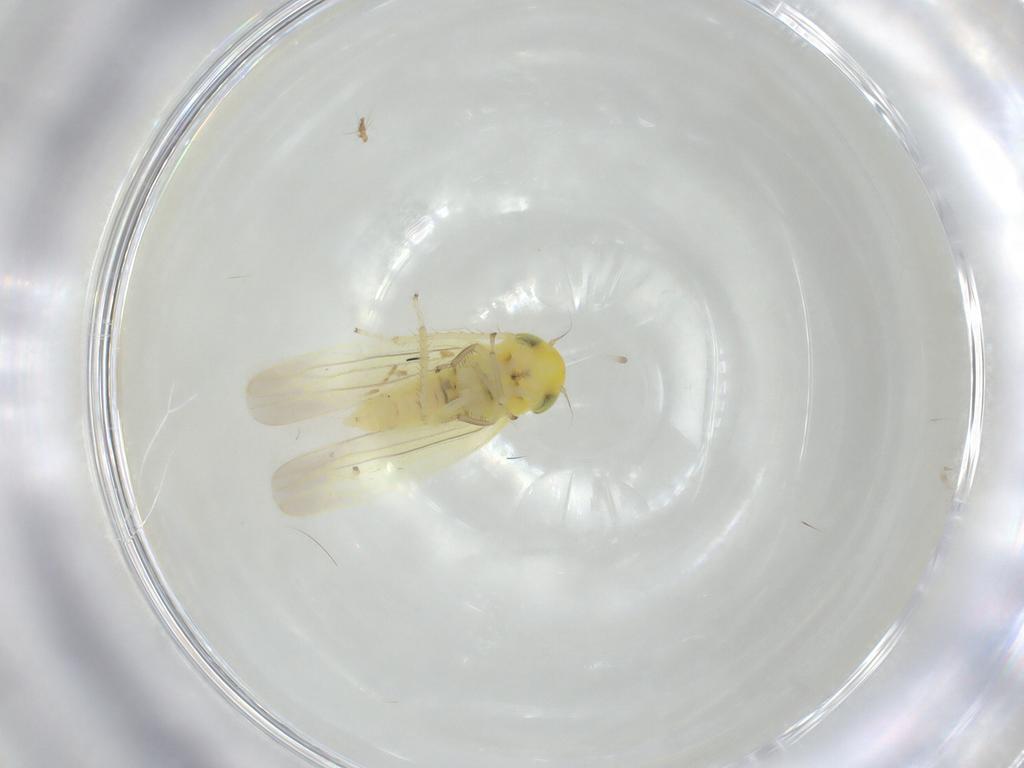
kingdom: Animalia
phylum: Arthropoda
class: Insecta
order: Hemiptera
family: Cicadellidae
